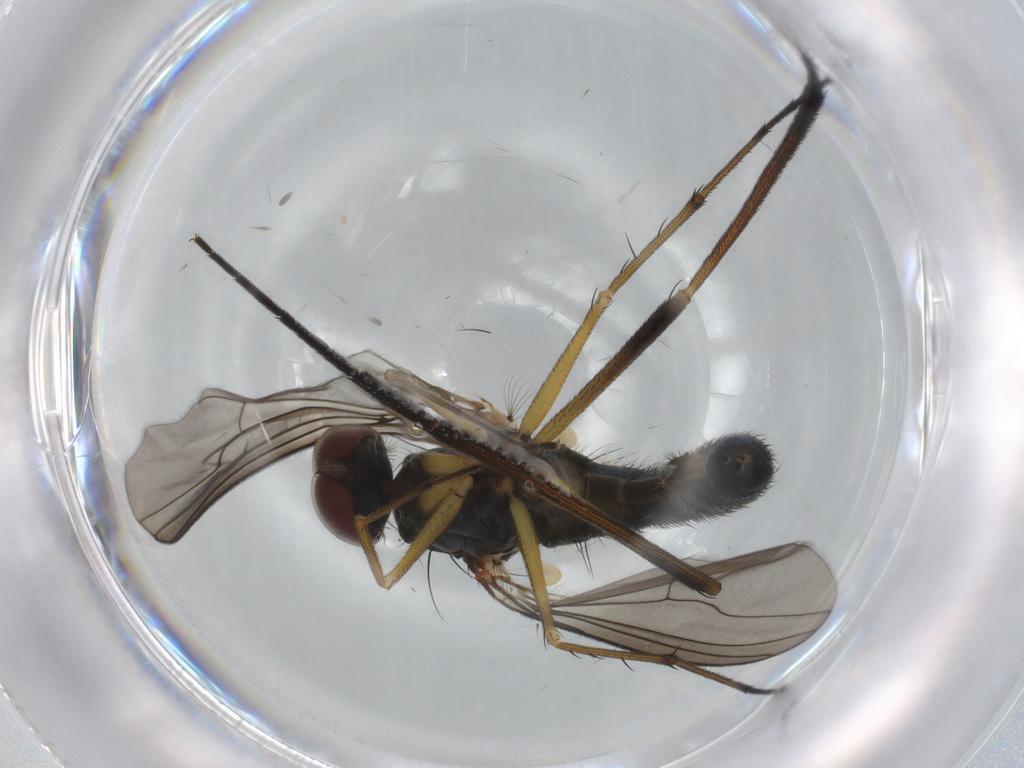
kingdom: Animalia
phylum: Arthropoda
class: Insecta
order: Diptera
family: Dolichopodidae
